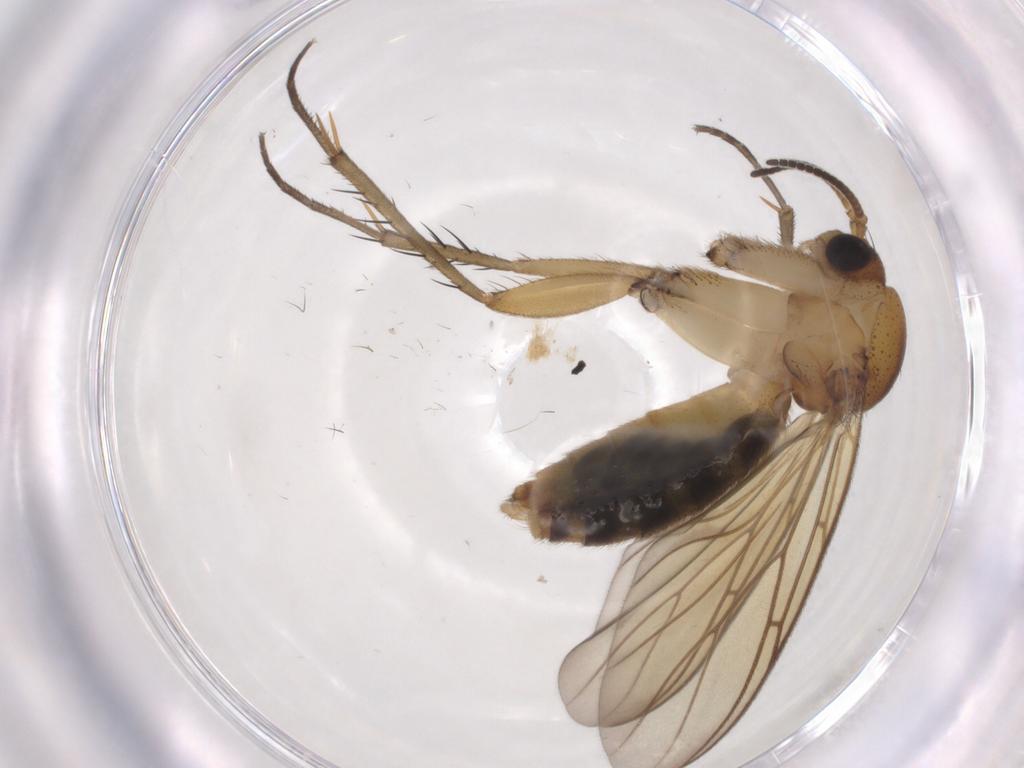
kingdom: Animalia
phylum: Arthropoda
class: Insecta
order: Diptera
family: Mycetophilidae
